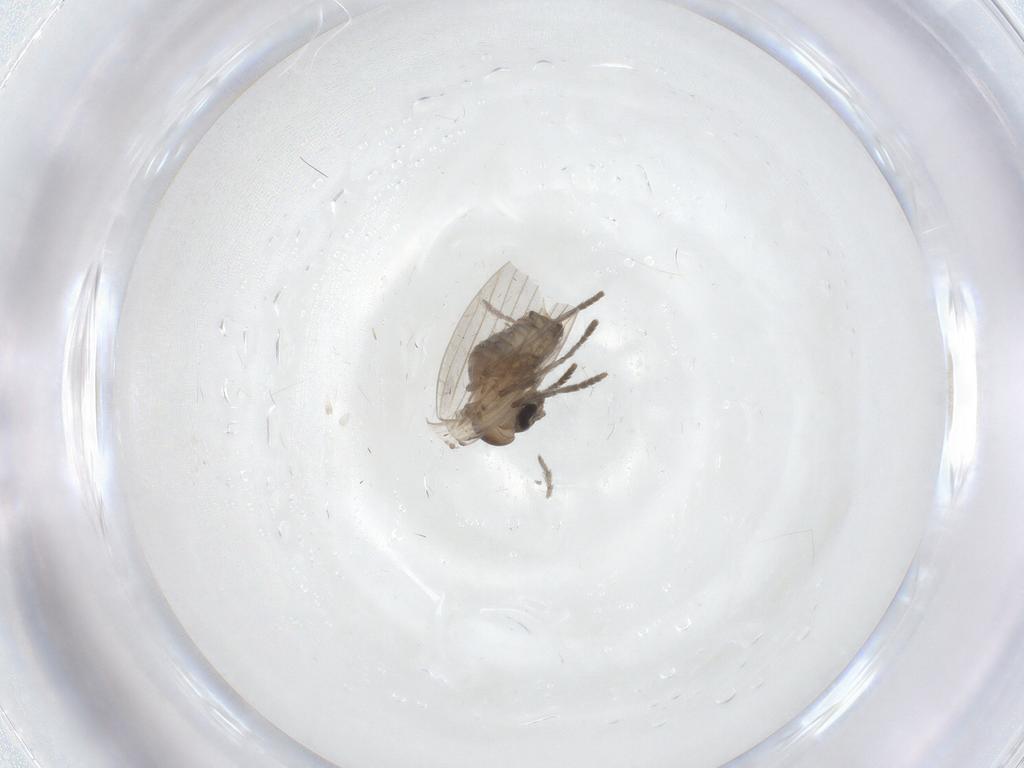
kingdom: Animalia
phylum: Arthropoda
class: Insecta
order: Diptera
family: Psychodidae
